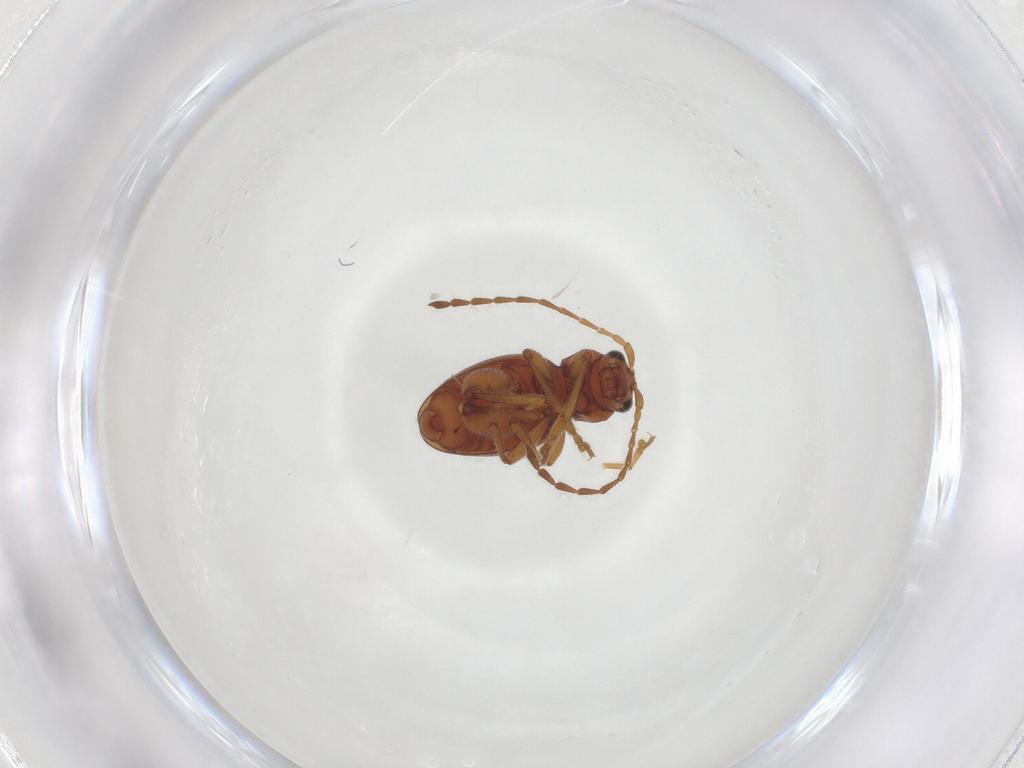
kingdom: Animalia
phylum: Arthropoda
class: Insecta
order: Coleoptera
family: Chrysomelidae
